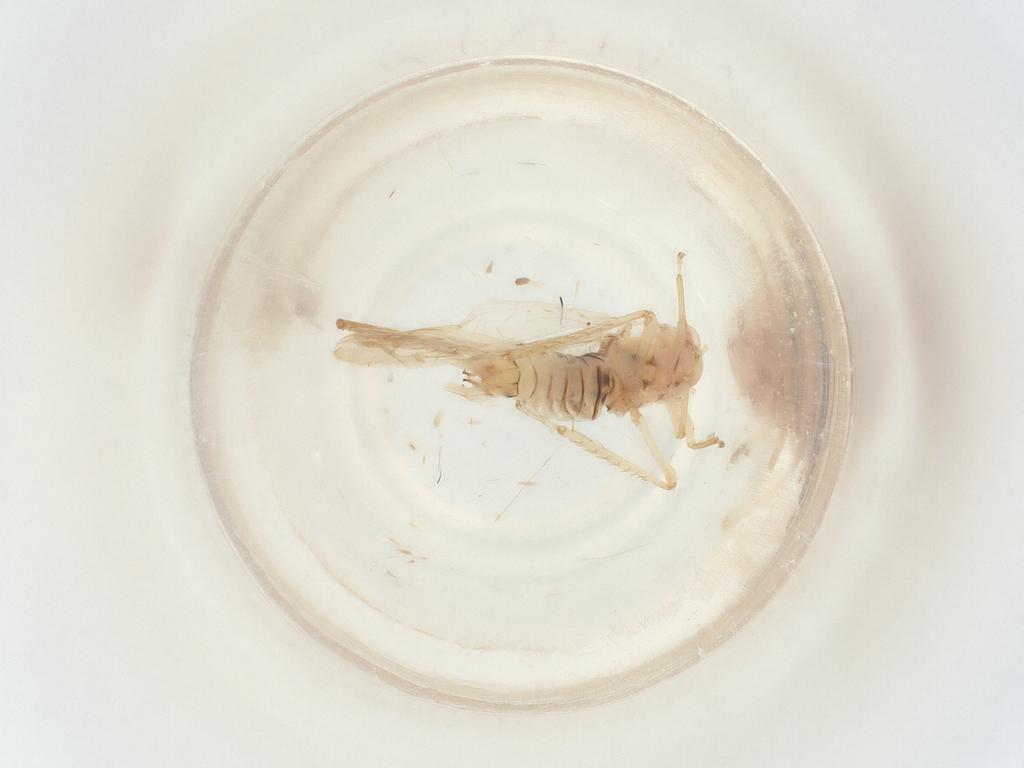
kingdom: Animalia
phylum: Arthropoda
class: Insecta
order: Hemiptera
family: Cicadellidae
